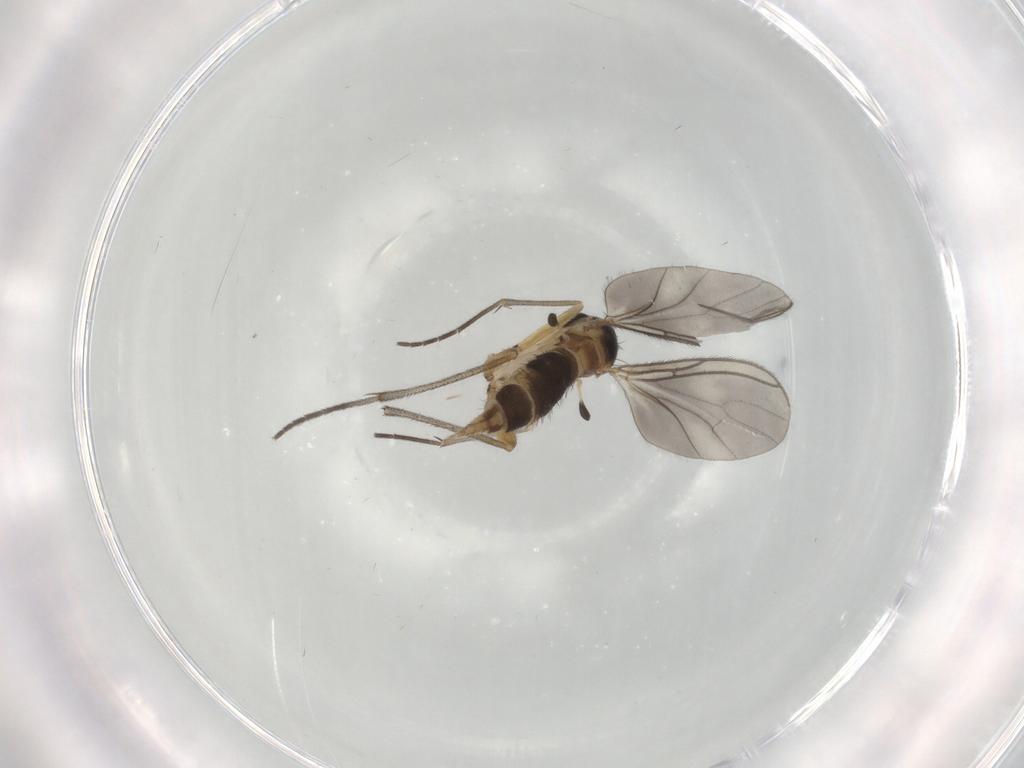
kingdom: Animalia
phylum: Arthropoda
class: Insecta
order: Diptera
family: Sciaridae
